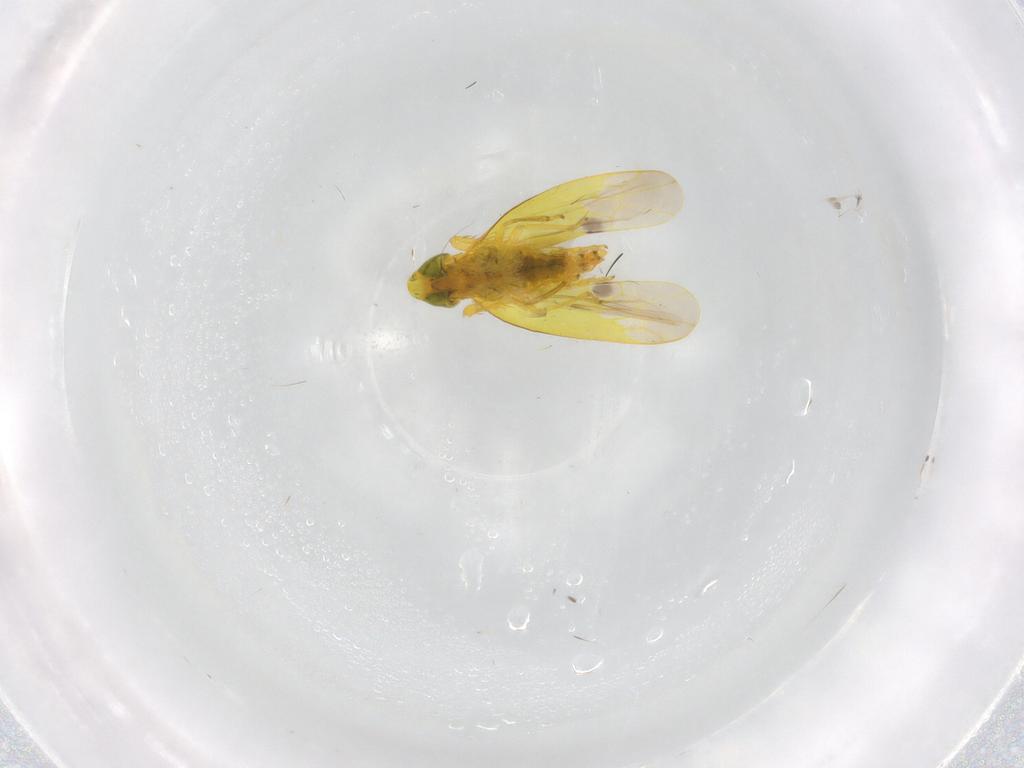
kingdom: Animalia
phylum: Arthropoda
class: Insecta
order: Hemiptera
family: Cicadellidae
